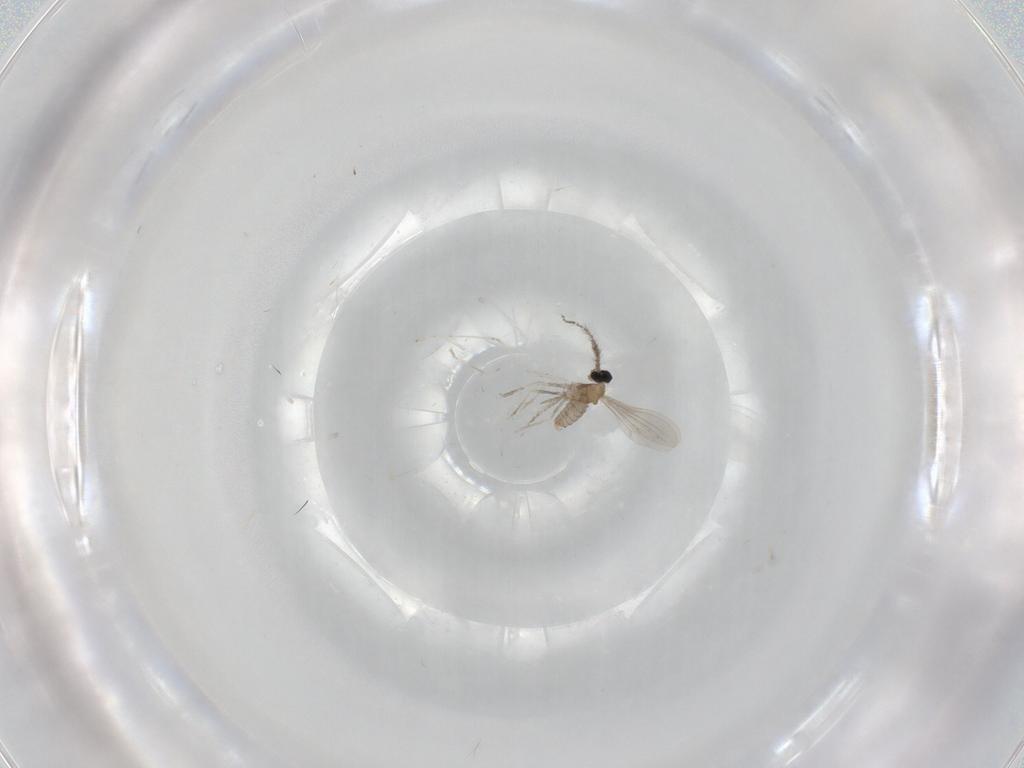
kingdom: Animalia
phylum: Arthropoda
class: Insecta
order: Diptera
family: Cecidomyiidae
